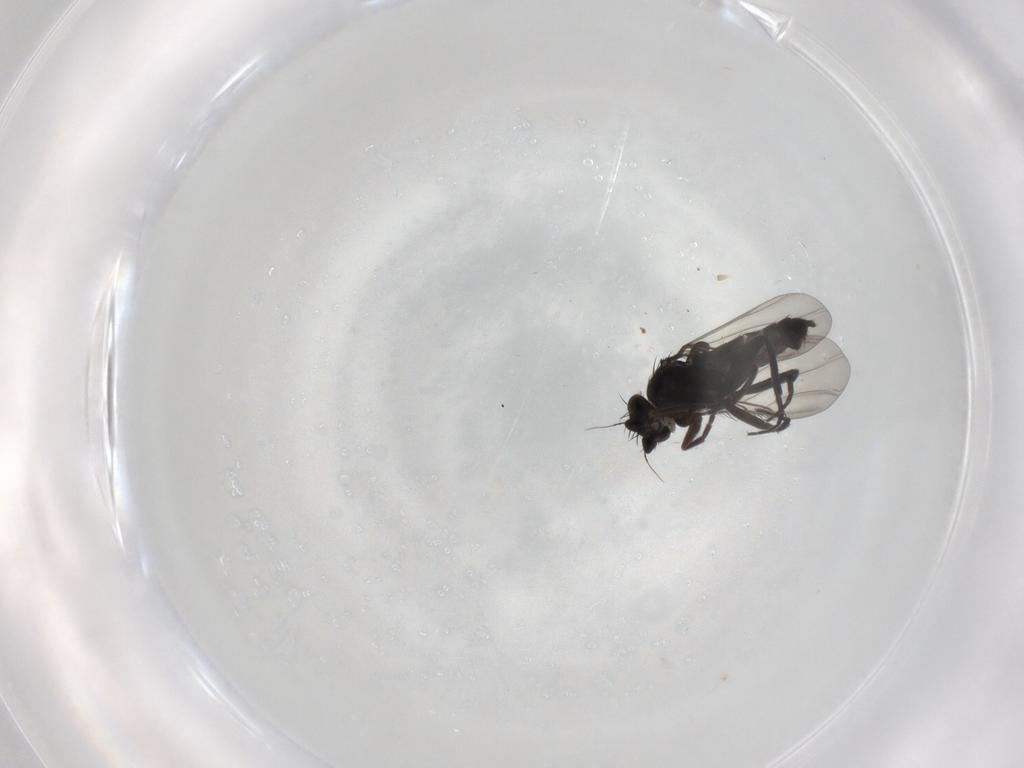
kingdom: Animalia
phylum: Arthropoda
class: Insecta
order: Diptera
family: Phoridae
